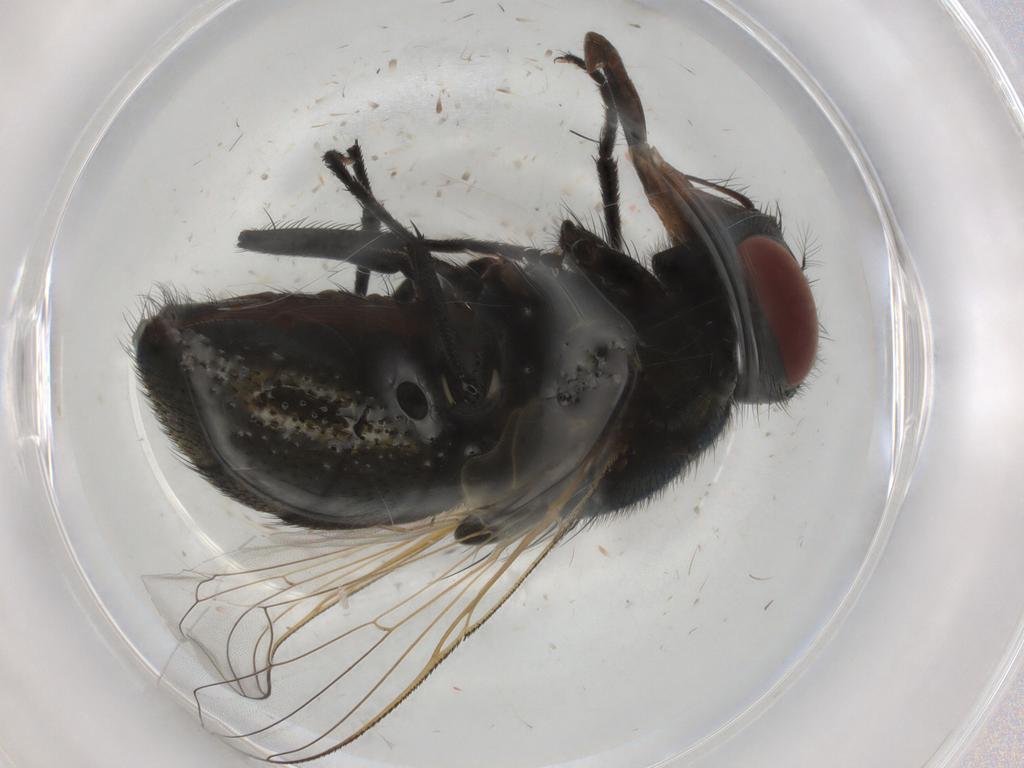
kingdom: Animalia
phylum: Arthropoda
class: Insecta
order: Diptera
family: Muscidae
